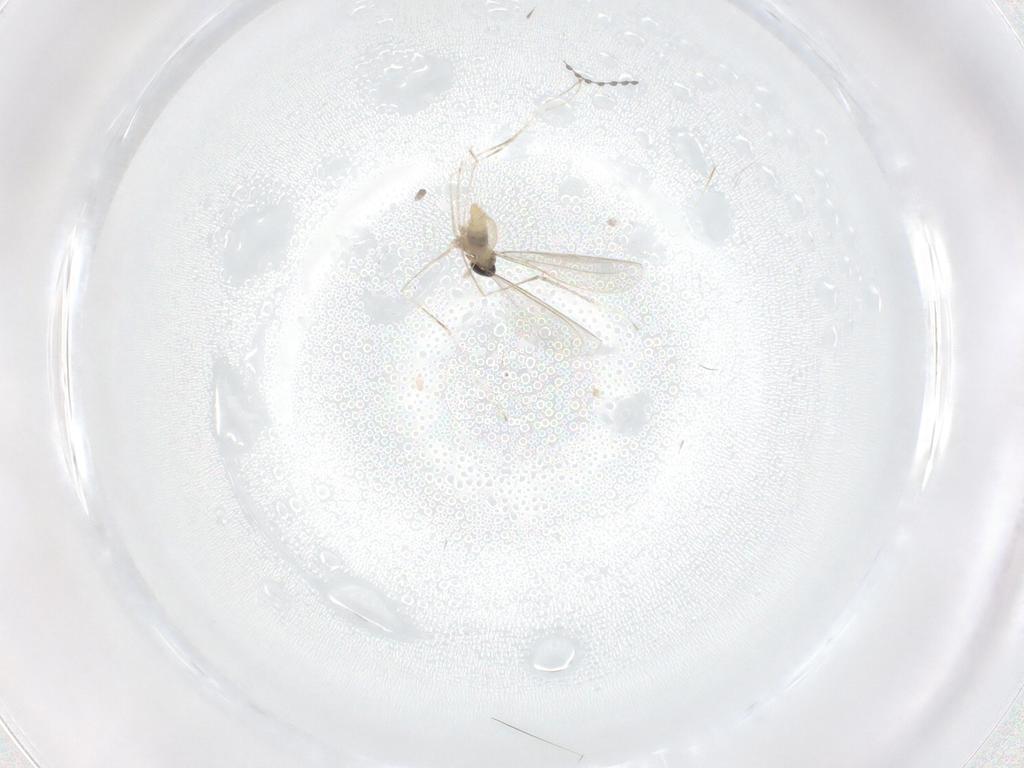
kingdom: Animalia
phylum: Arthropoda
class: Insecta
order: Diptera
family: Cecidomyiidae
